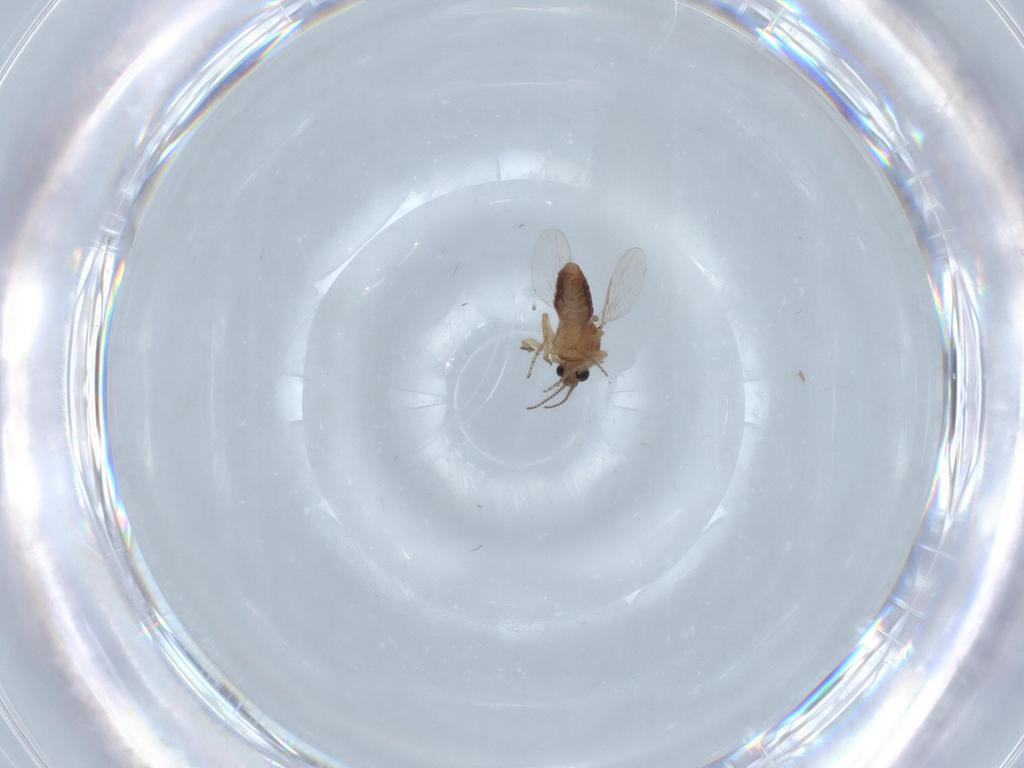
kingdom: Animalia
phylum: Arthropoda
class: Insecta
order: Diptera
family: Ceratopogonidae
